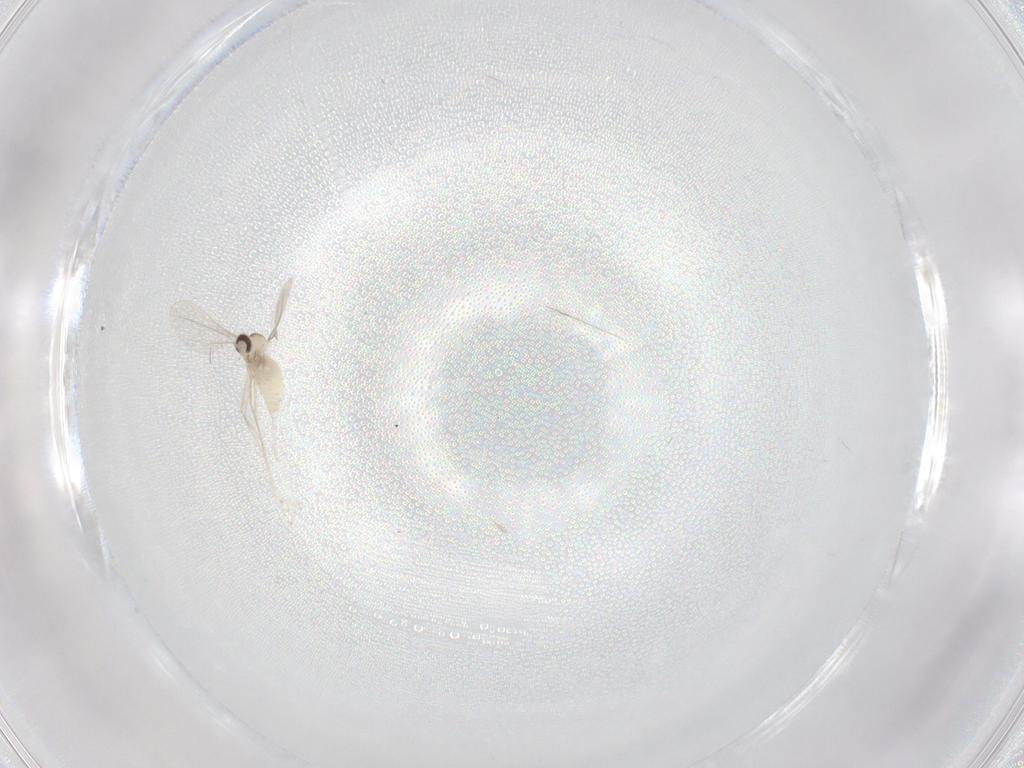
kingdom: Animalia
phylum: Arthropoda
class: Insecta
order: Diptera
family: Cecidomyiidae
